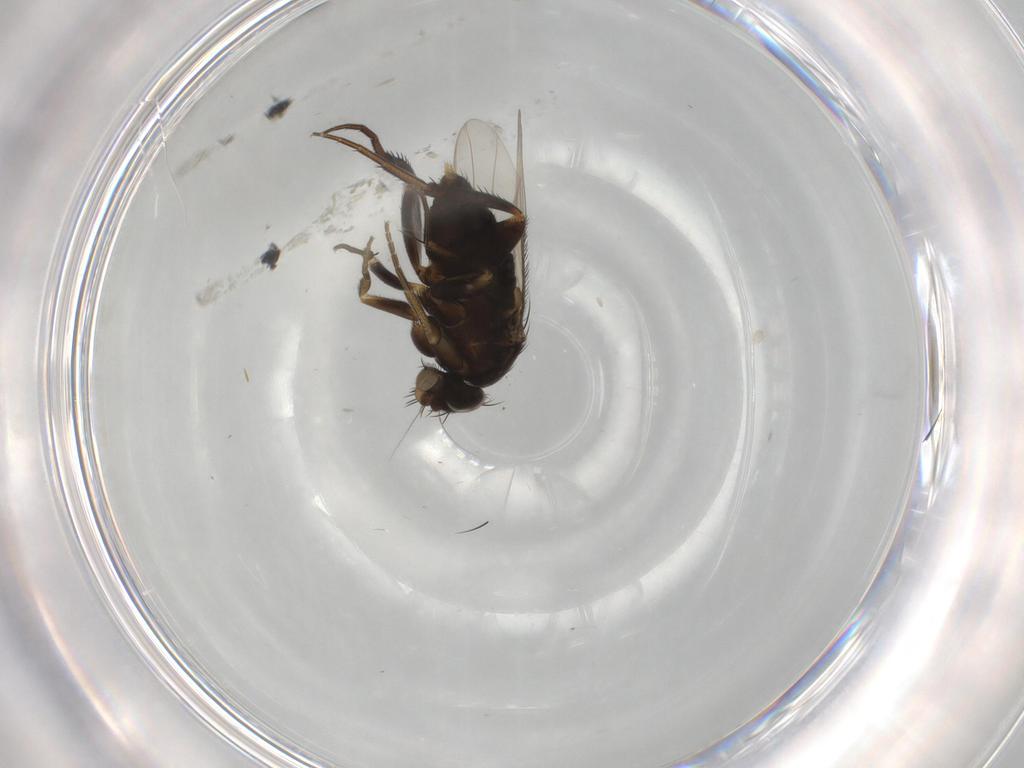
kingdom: Animalia
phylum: Arthropoda
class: Insecta
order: Diptera
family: Phoridae
